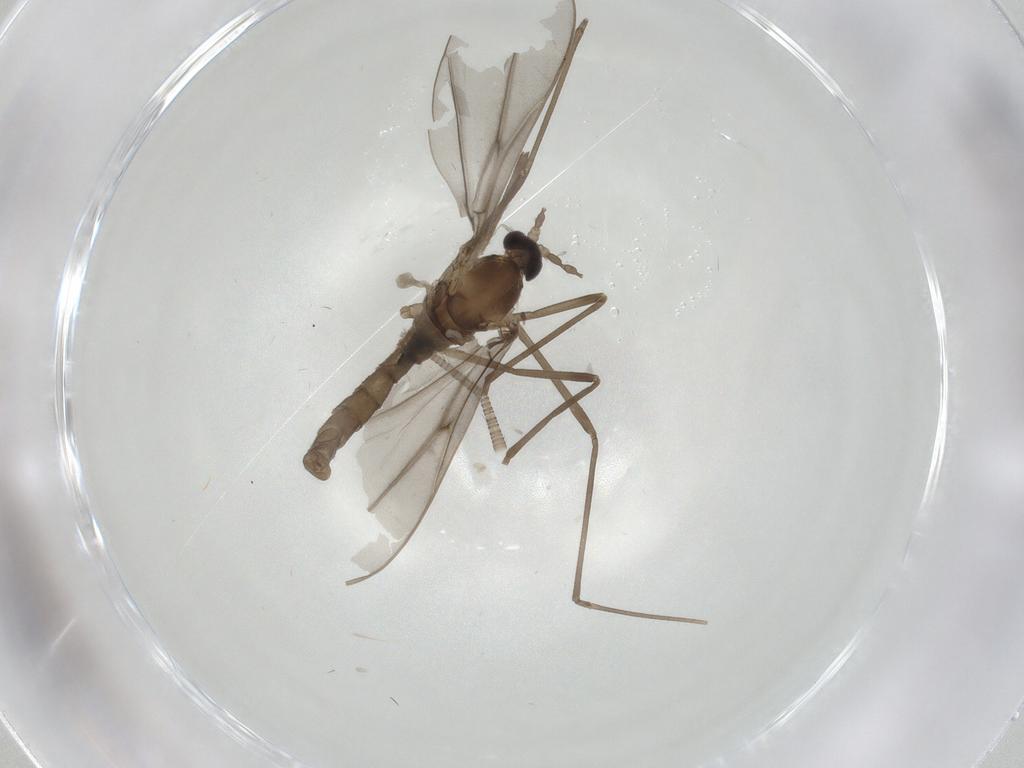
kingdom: Animalia
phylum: Arthropoda
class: Insecta
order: Diptera
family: Cecidomyiidae
